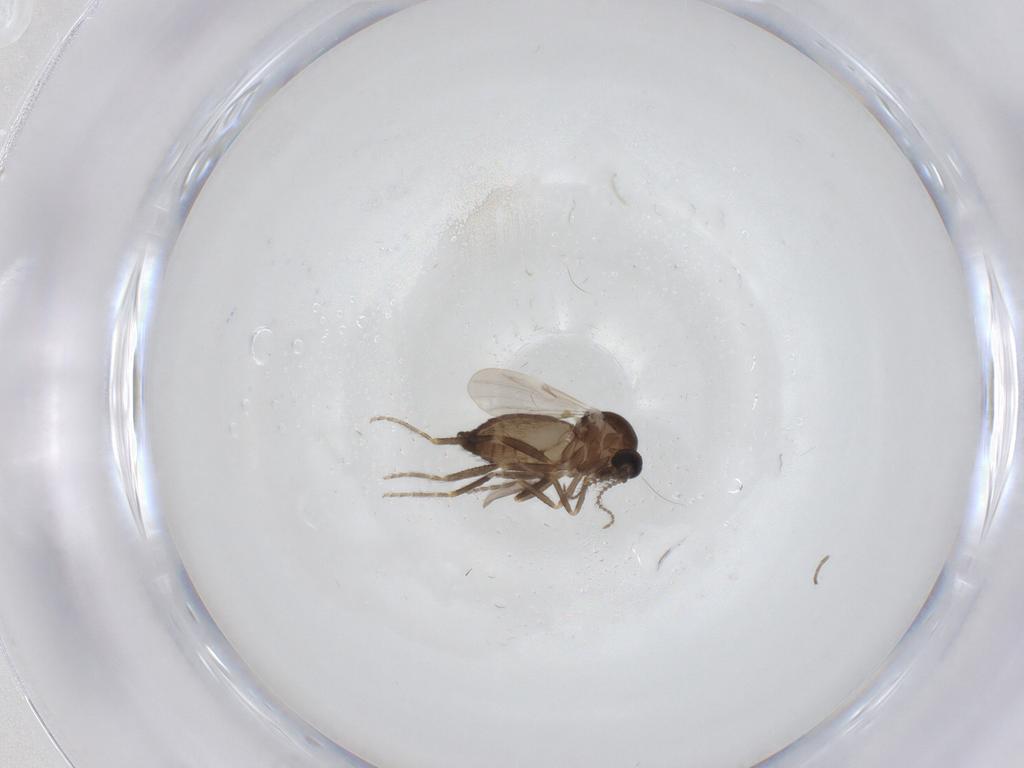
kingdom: Animalia
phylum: Arthropoda
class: Insecta
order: Diptera
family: Ceratopogonidae
